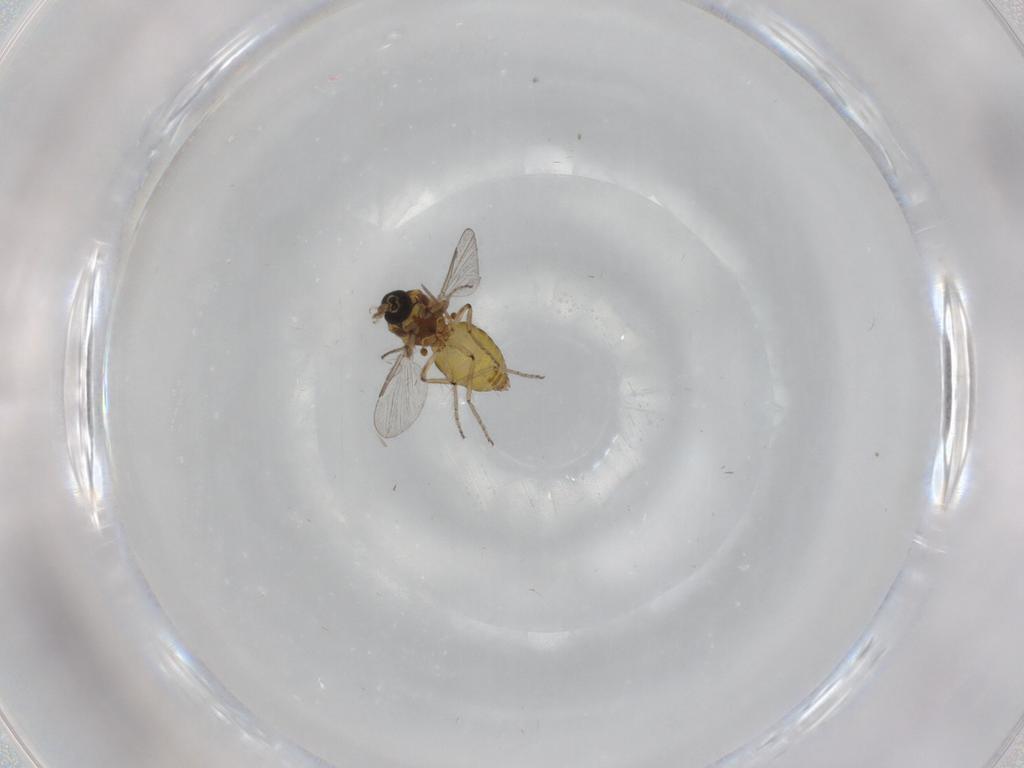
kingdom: Animalia
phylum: Arthropoda
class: Insecta
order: Diptera
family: Ceratopogonidae
